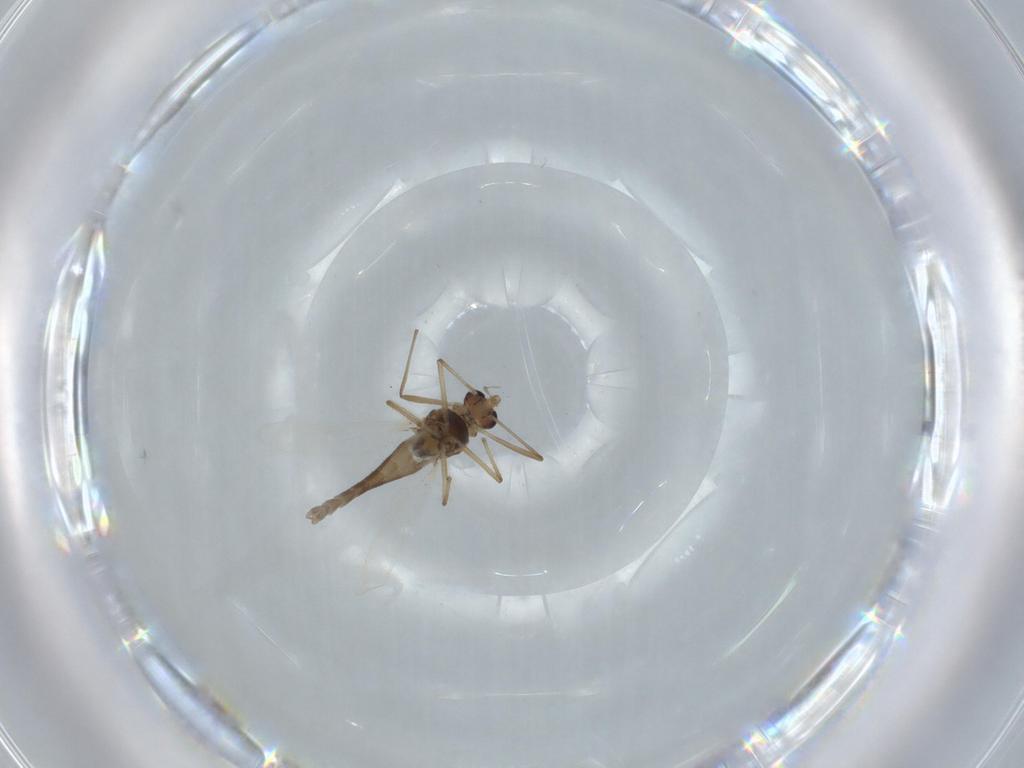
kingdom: Animalia
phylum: Arthropoda
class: Insecta
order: Diptera
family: Chironomidae
